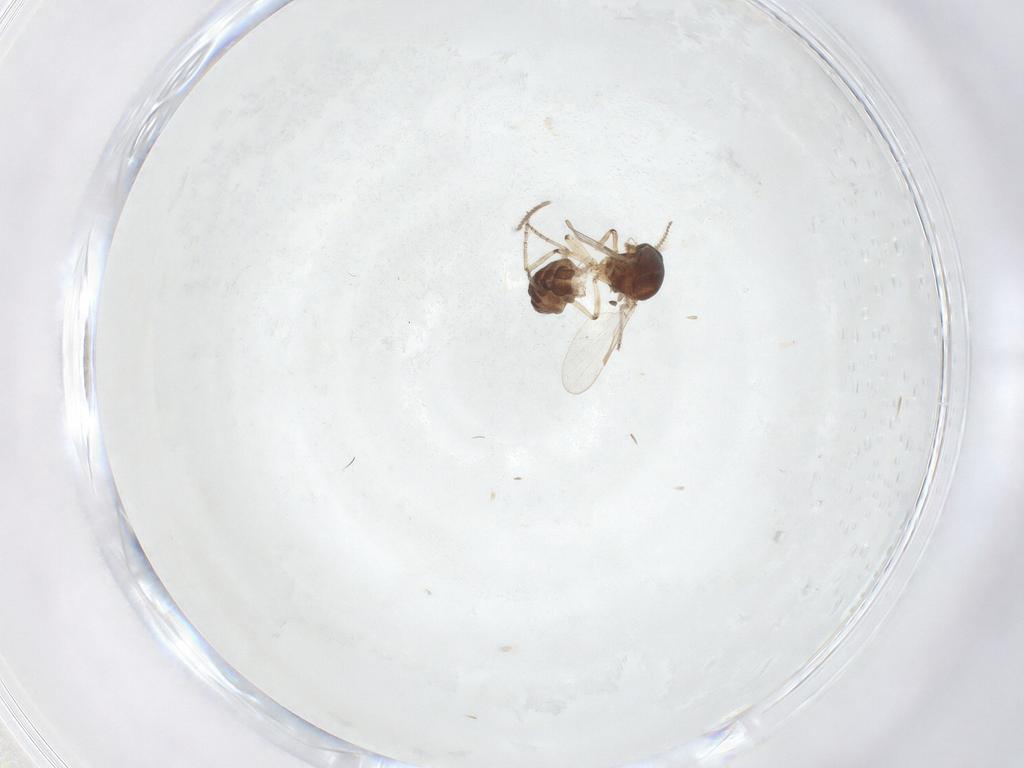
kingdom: Animalia
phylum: Arthropoda
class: Insecta
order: Diptera
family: Ceratopogonidae
